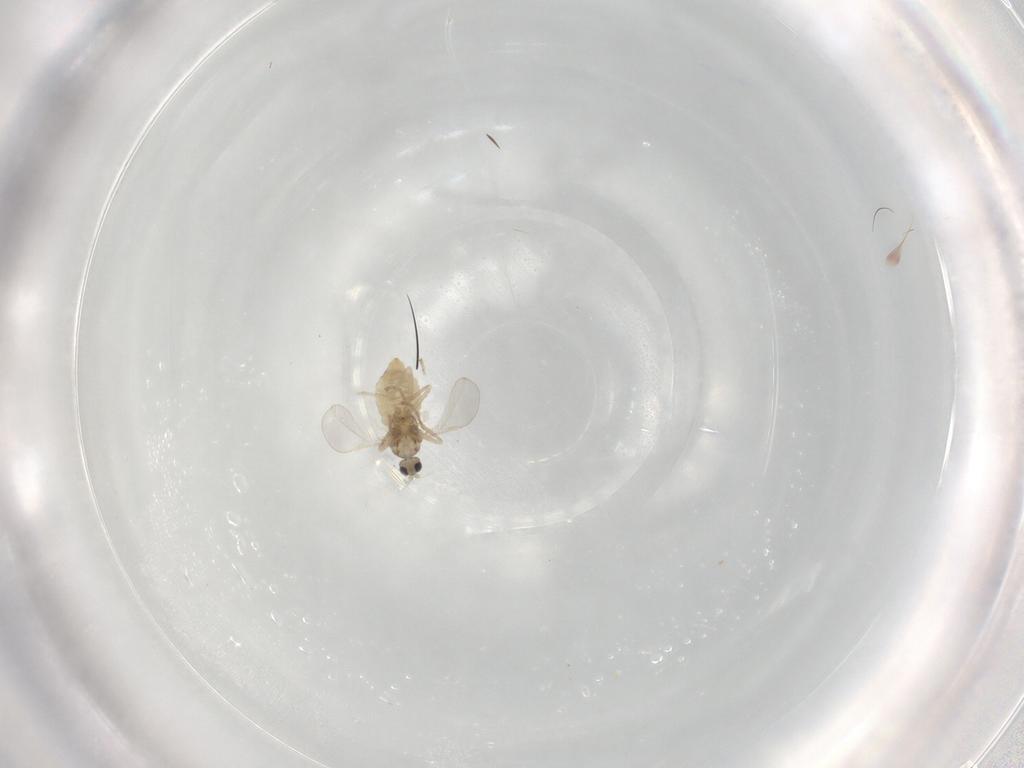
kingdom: Animalia
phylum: Arthropoda
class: Insecta
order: Diptera
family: Cecidomyiidae
